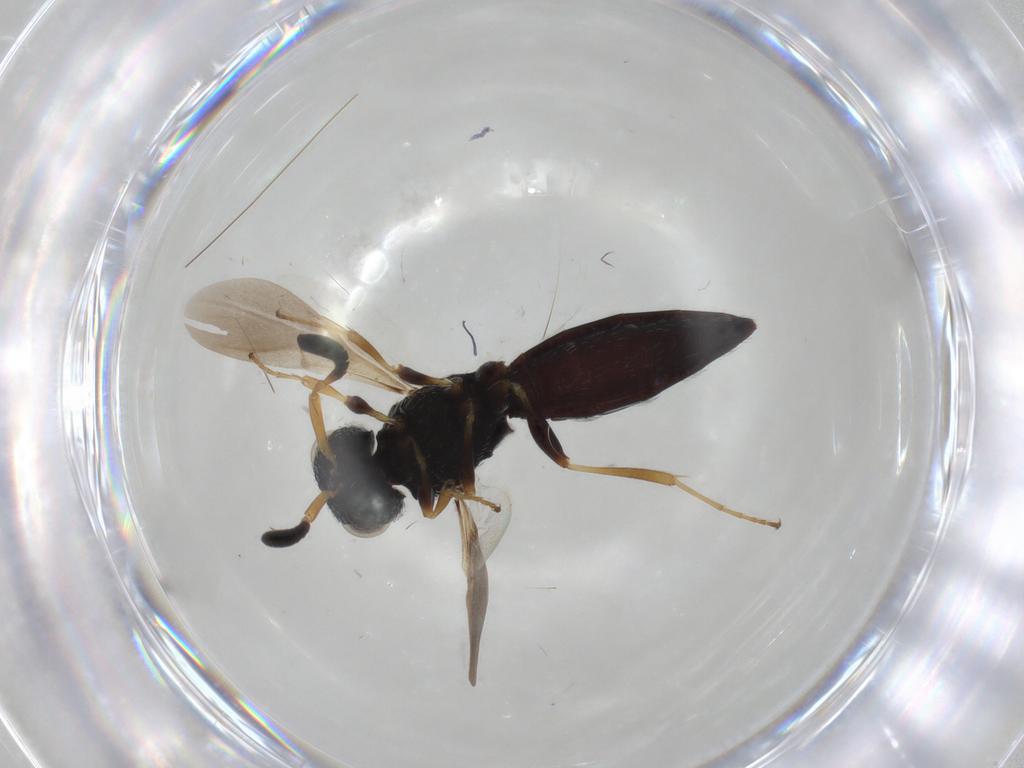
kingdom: Animalia
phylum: Arthropoda
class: Insecta
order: Hymenoptera
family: Scelionidae
